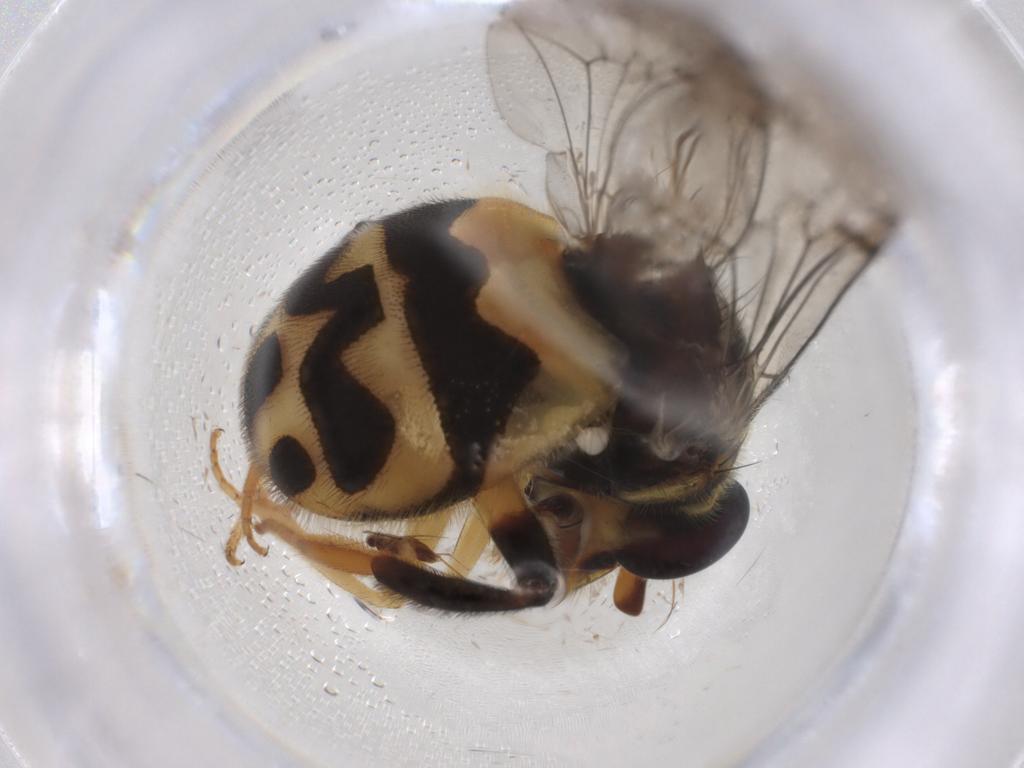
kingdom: Animalia
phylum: Arthropoda
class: Insecta
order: Diptera
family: Syrphidae
